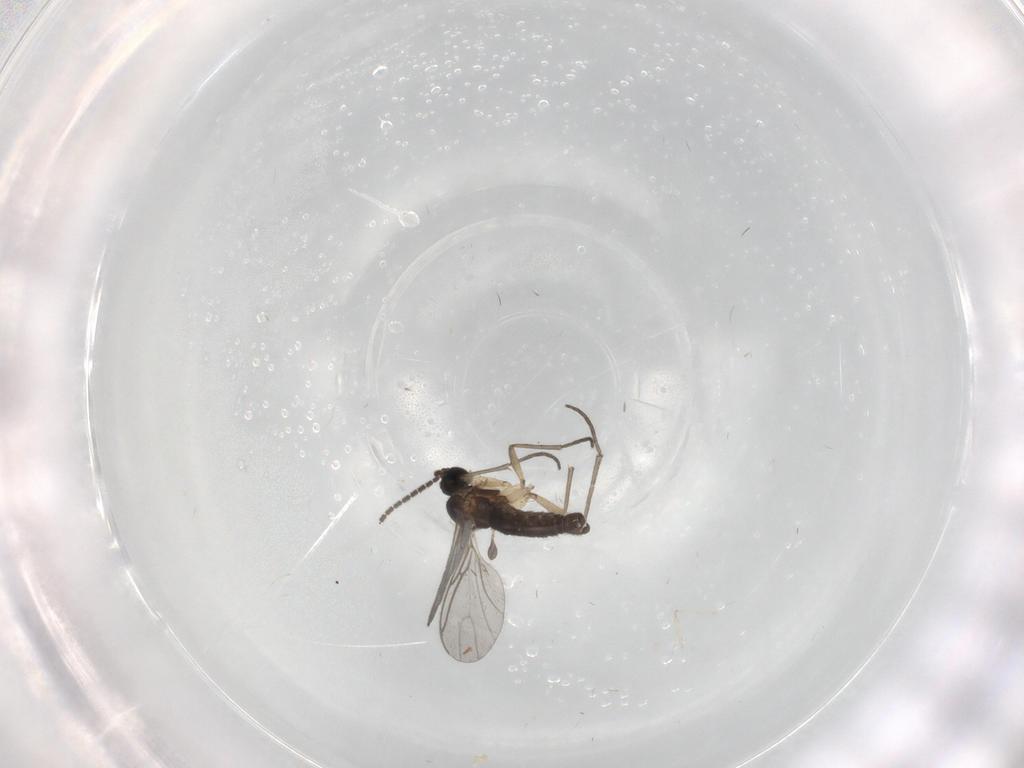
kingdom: Animalia
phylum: Arthropoda
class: Insecta
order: Diptera
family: Sciaridae
